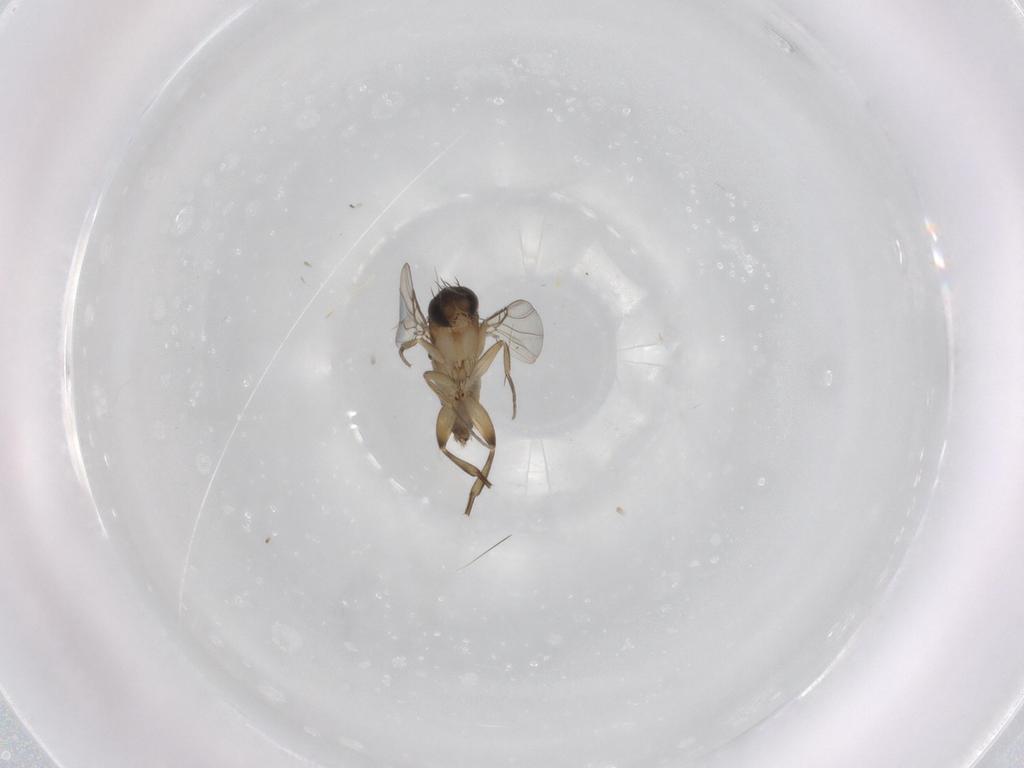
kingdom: Animalia
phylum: Arthropoda
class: Insecta
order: Diptera
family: Phoridae
